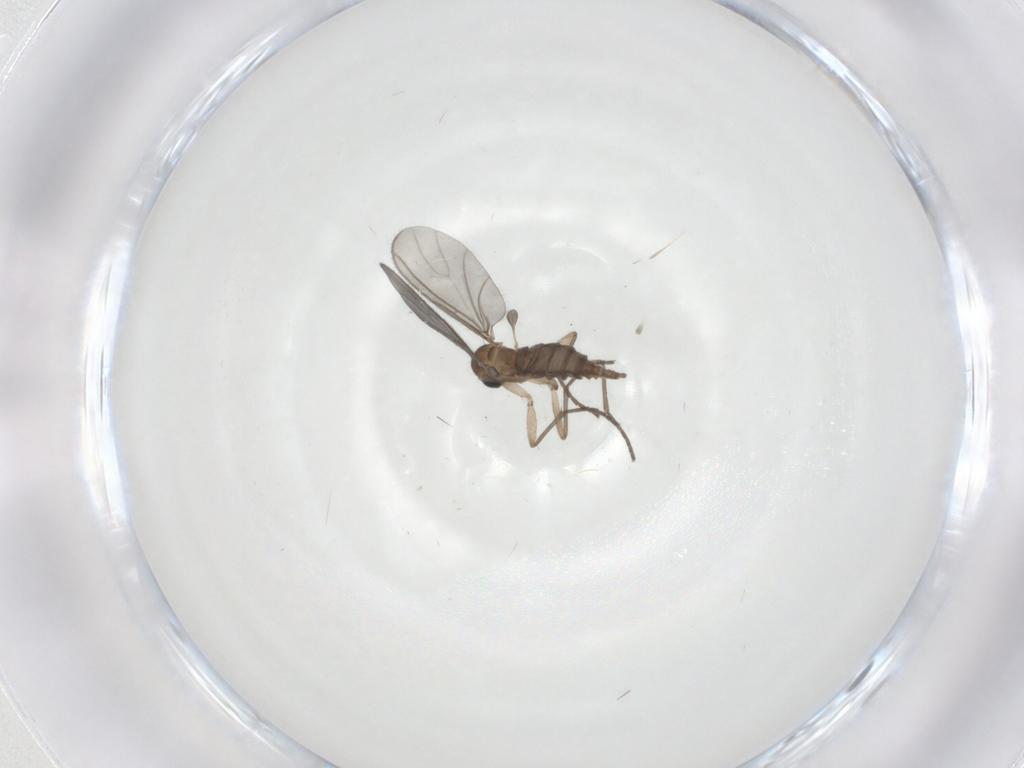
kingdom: Animalia
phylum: Arthropoda
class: Insecta
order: Diptera
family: Sciaridae
